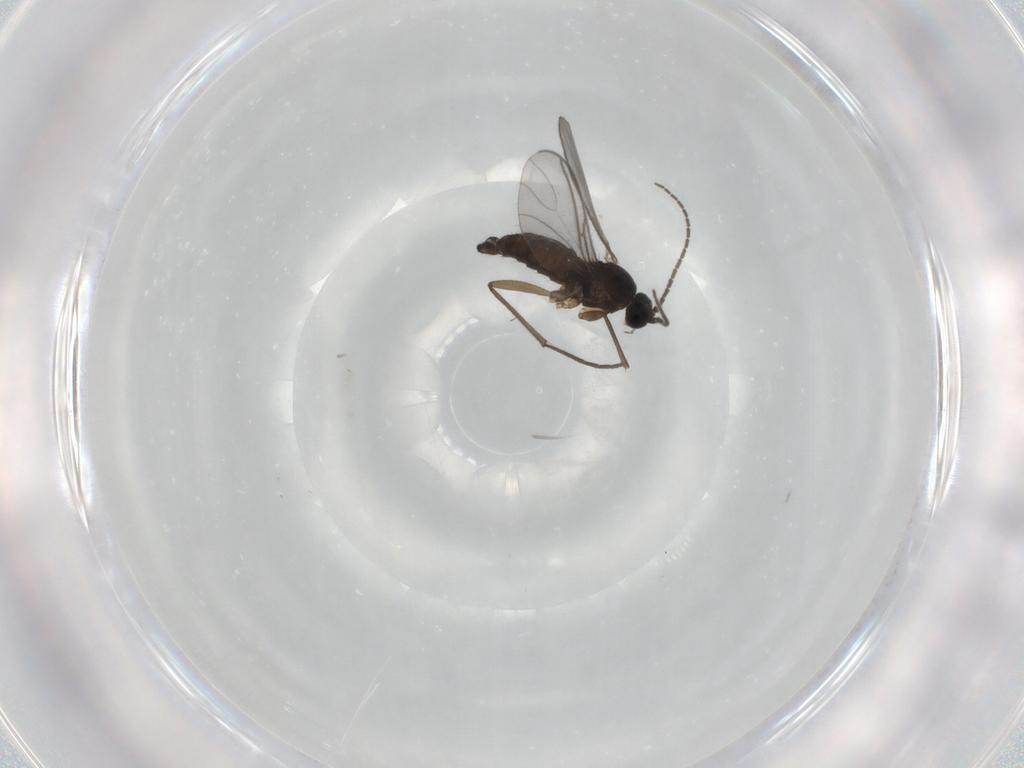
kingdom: Animalia
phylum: Arthropoda
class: Insecta
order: Diptera
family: Sciaridae
